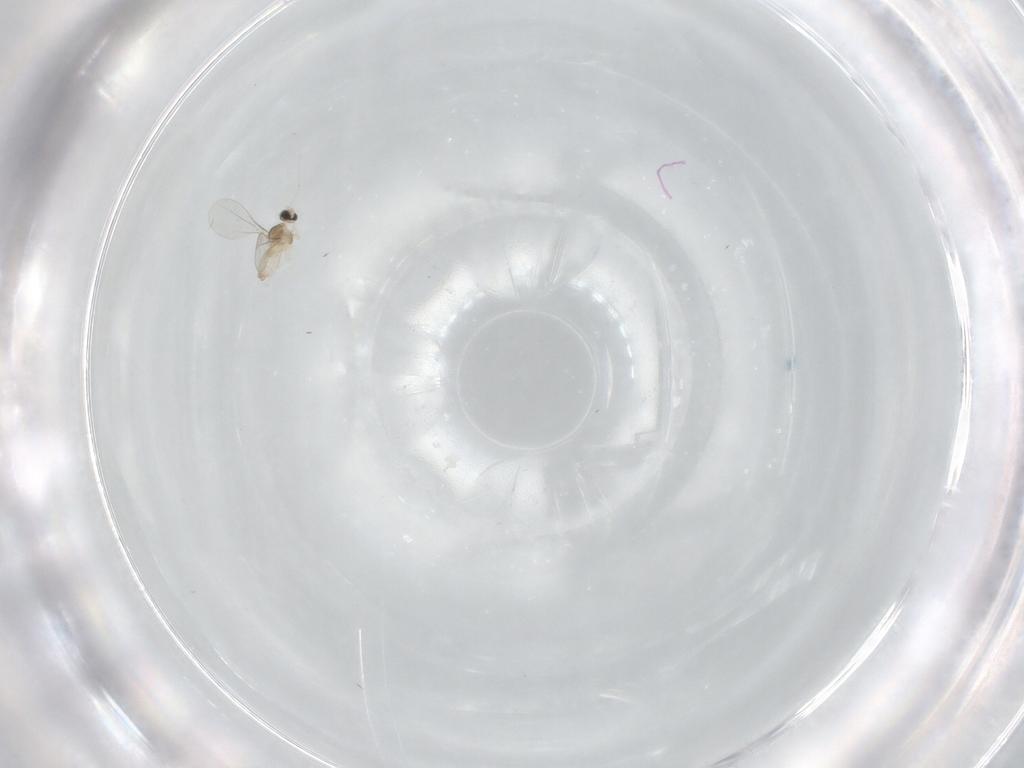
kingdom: Animalia
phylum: Arthropoda
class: Insecta
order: Diptera
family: Cecidomyiidae
